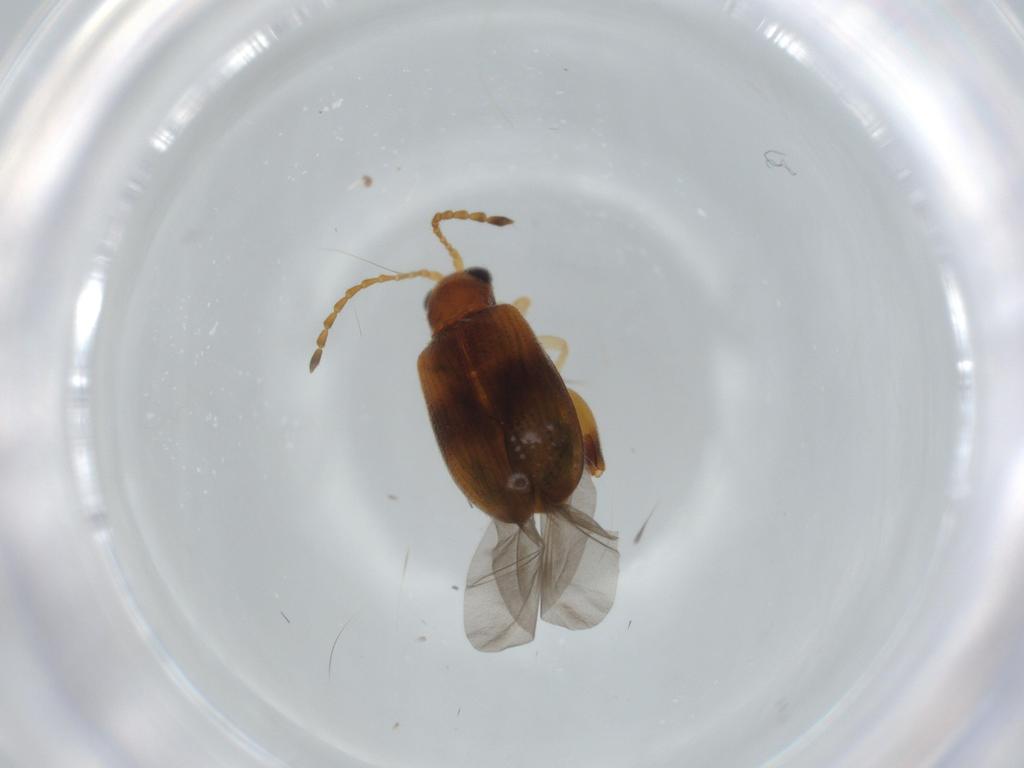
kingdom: Animalia
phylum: Arthropoda
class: Insecta
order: Coleoptera
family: Chrysomelidae
